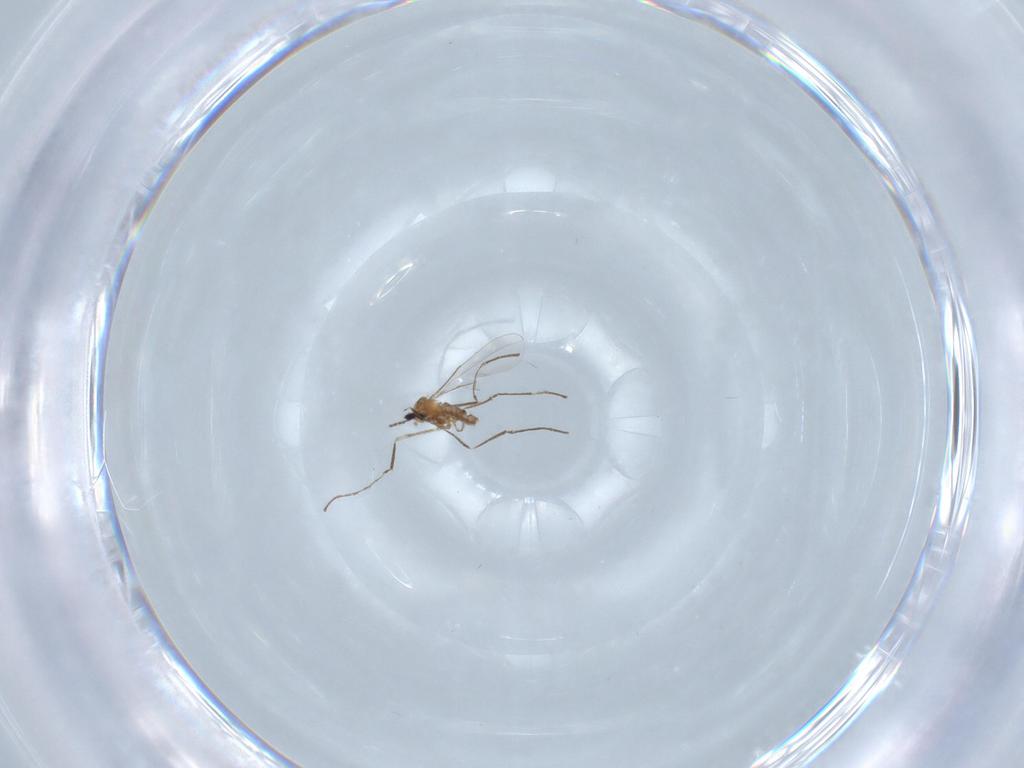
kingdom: Animalia
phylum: Arthropoda
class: Insecta
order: Diptera
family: Cecidomyiidae
